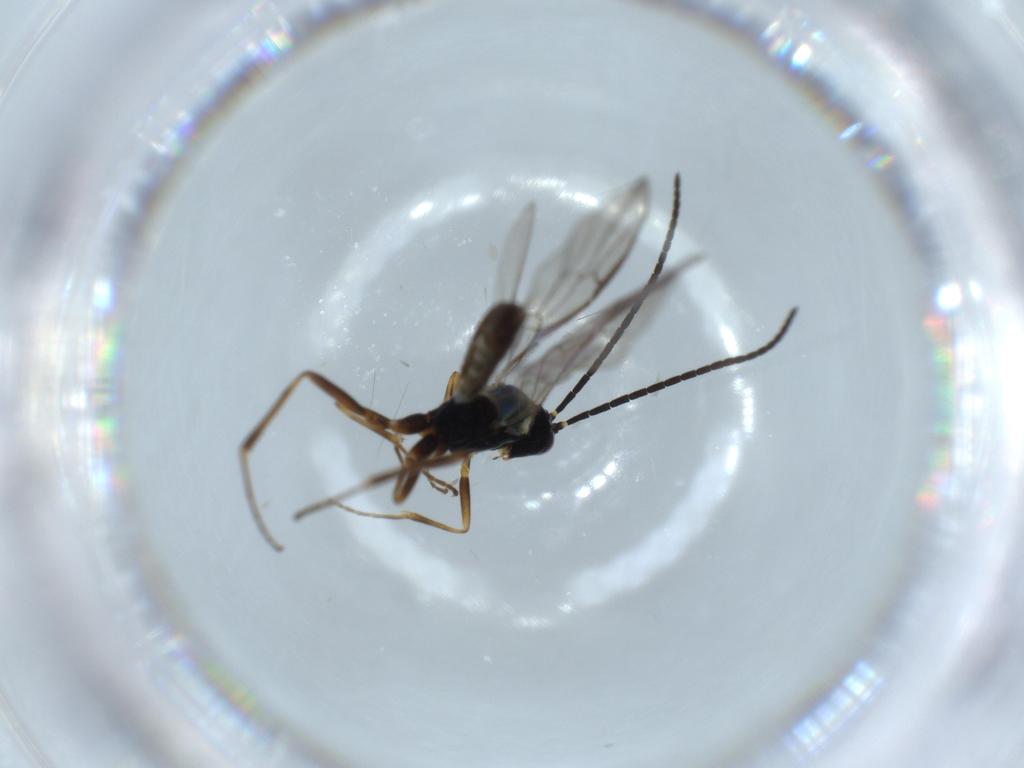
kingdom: Animalia
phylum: Arthropoda
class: Insecta
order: Hymenoptera
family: Ichneumonidae
